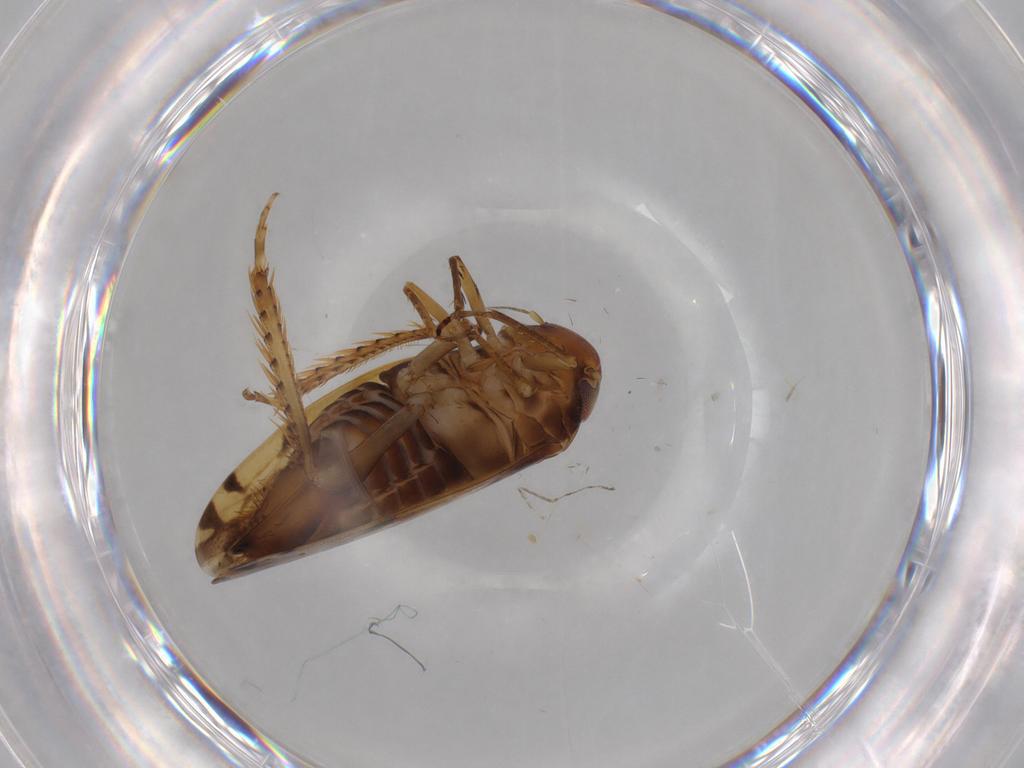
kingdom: Animalia
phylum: Arthropoda
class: Insecta
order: Hemiptera
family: Cicadellidae
